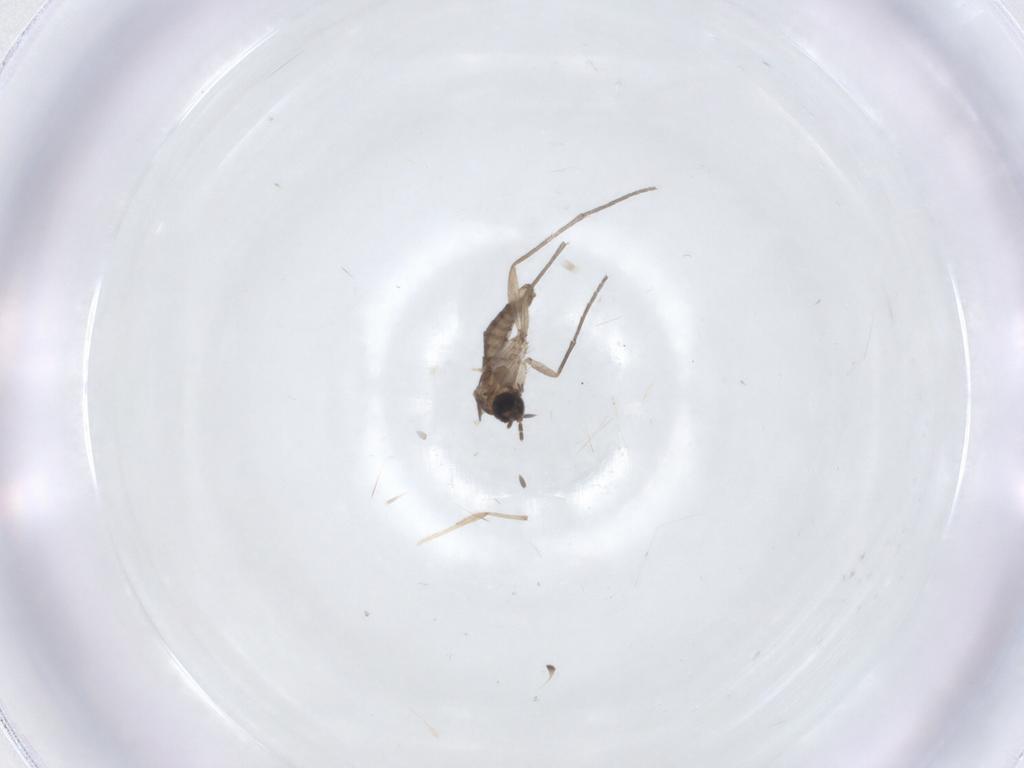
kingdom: Animalia
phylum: Arthropoda
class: Insecta
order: Diptera
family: Sciaridae
